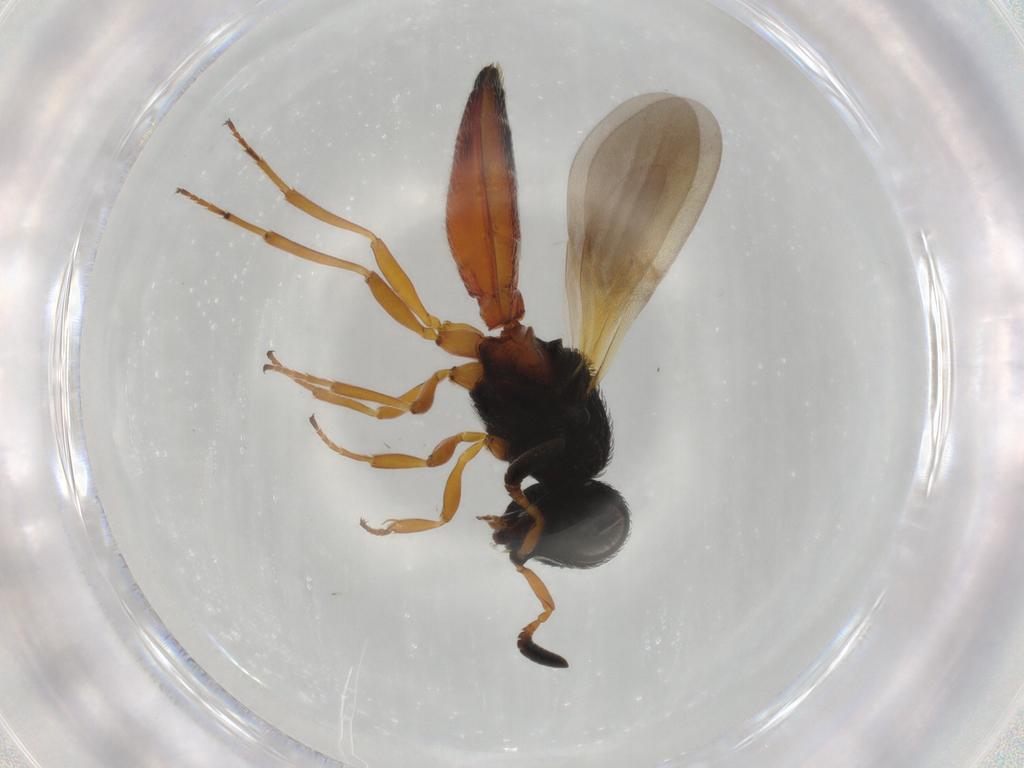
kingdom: Animalia
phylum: Arthropoda
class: Insecta
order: Hymenoptera
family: Scelionidae
